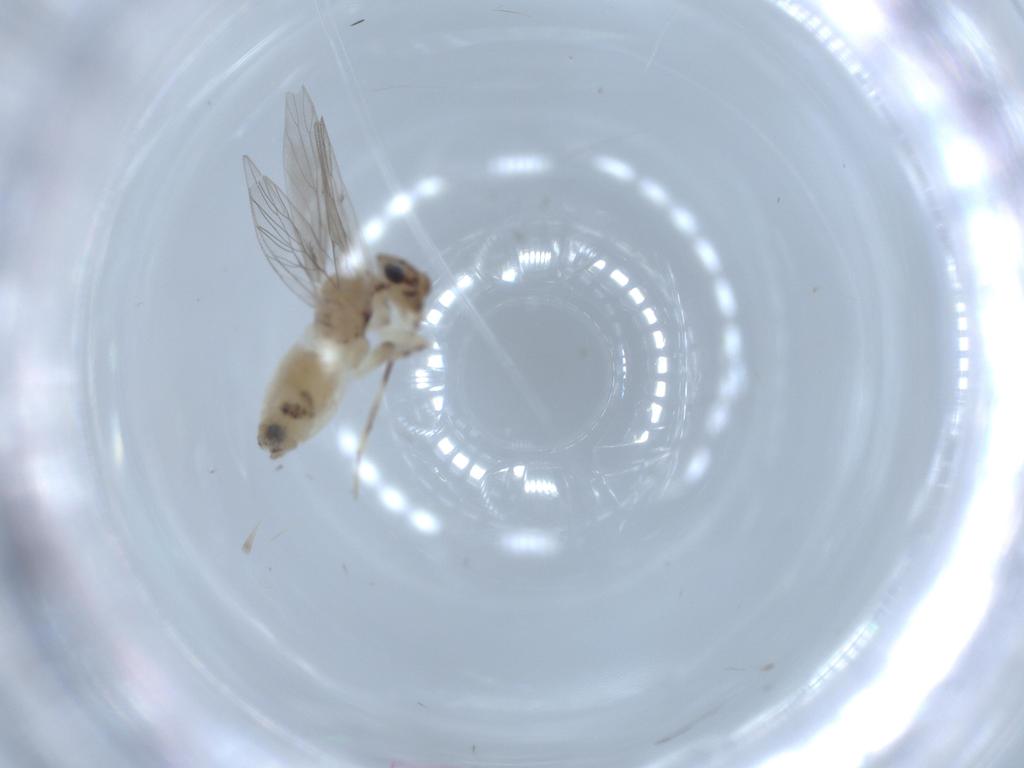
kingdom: Animalia
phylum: Arthropoda
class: Insecta
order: Psocodea
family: Lepidopsocidae
